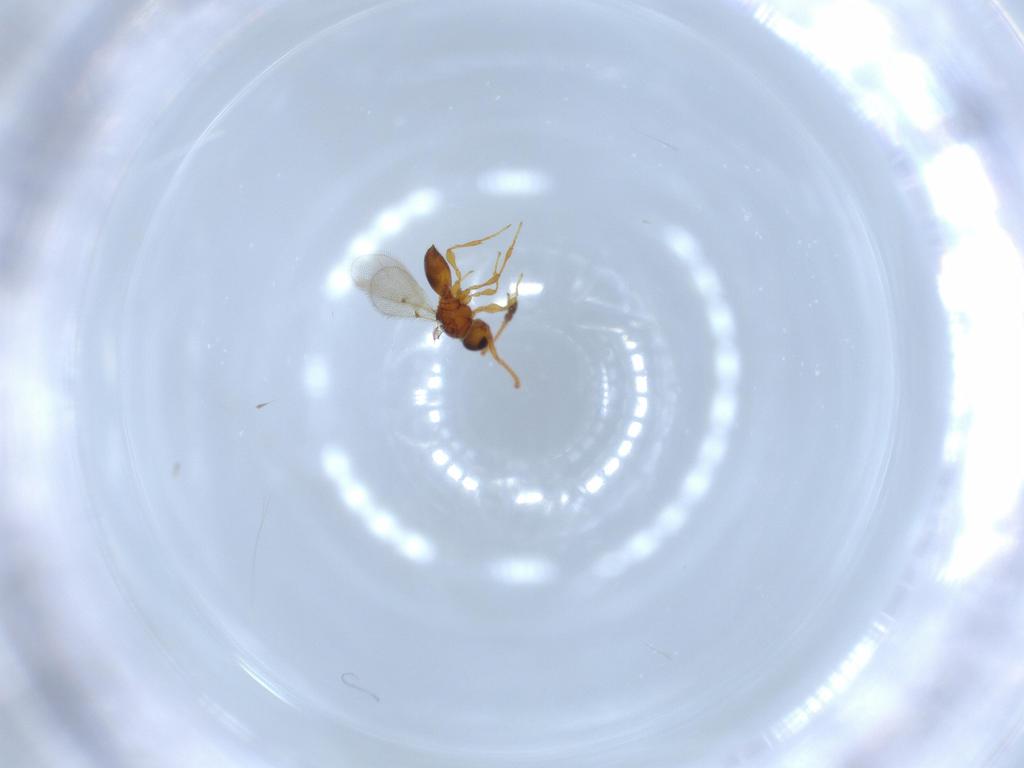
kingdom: Animalia
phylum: Arthropoda
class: Insecta
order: Hymenoptera
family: Diapriidae
